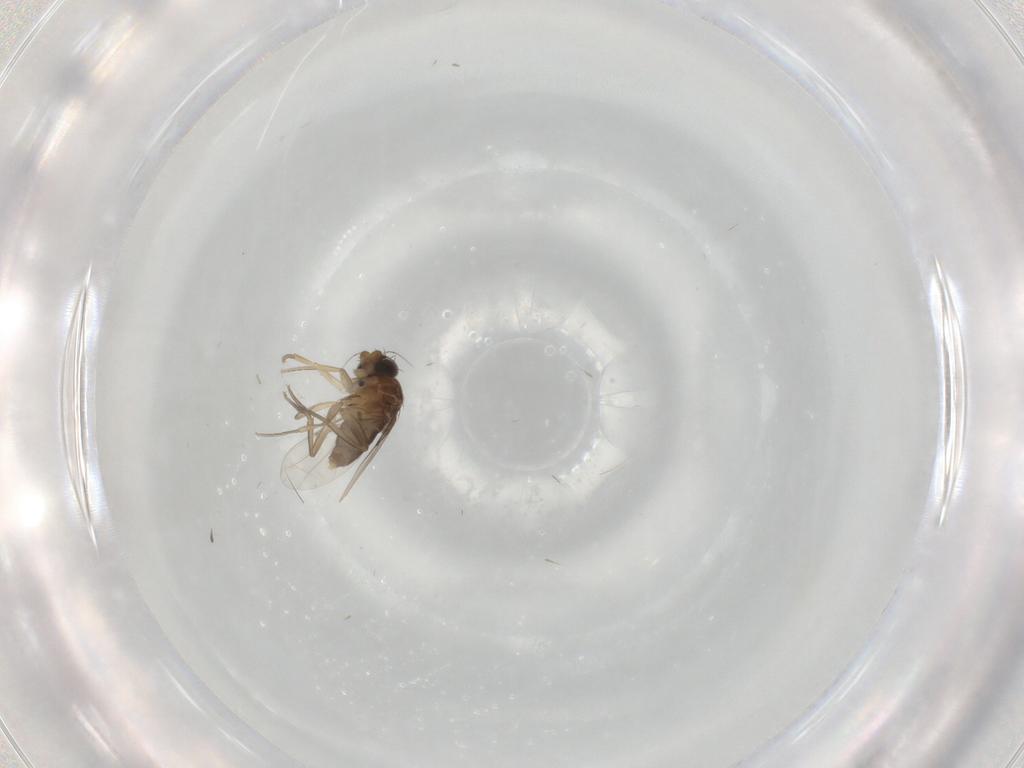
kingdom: Animalia
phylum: Arthropoda
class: Insecta
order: Diptera
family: Phoridae
